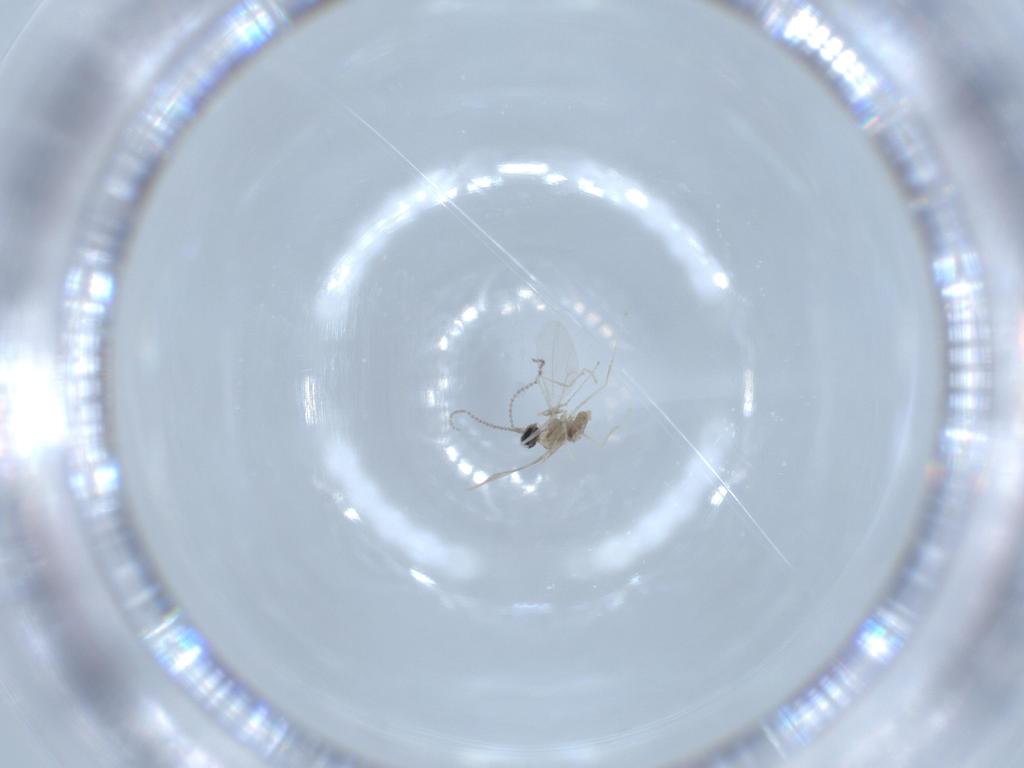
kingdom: Animalia
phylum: Arthropoda
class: Insecta
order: Diptera
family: Cecidomyiidae
